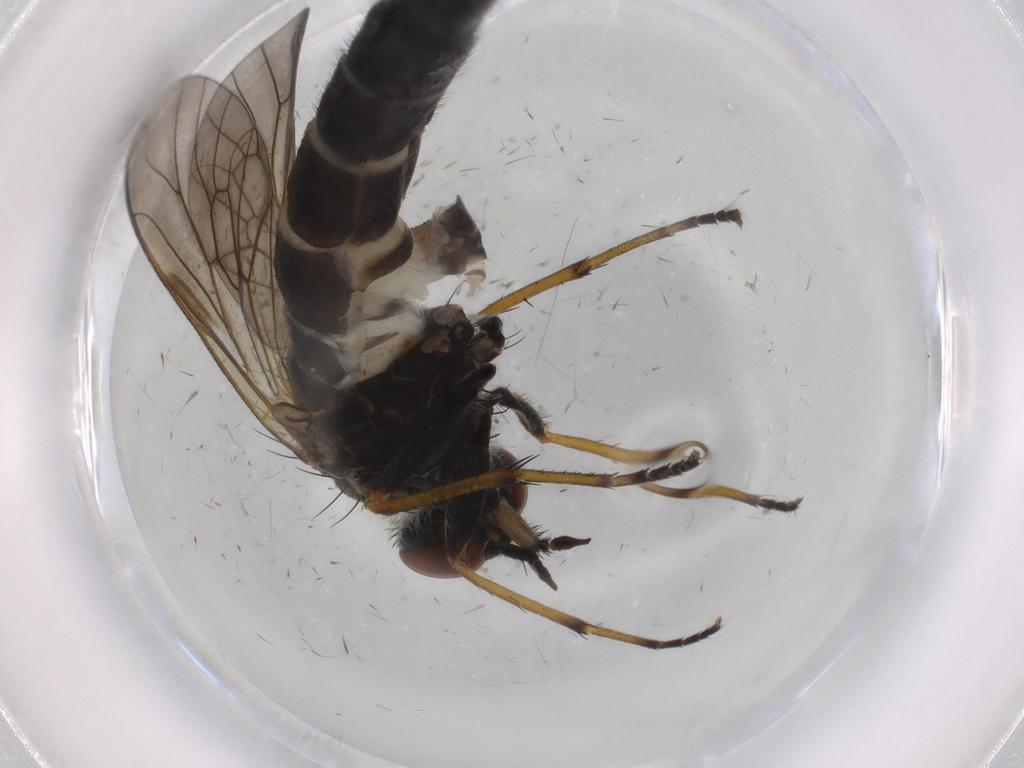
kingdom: Animalia
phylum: Arthropoda
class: Insecta
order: Diptera
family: Therevidae
